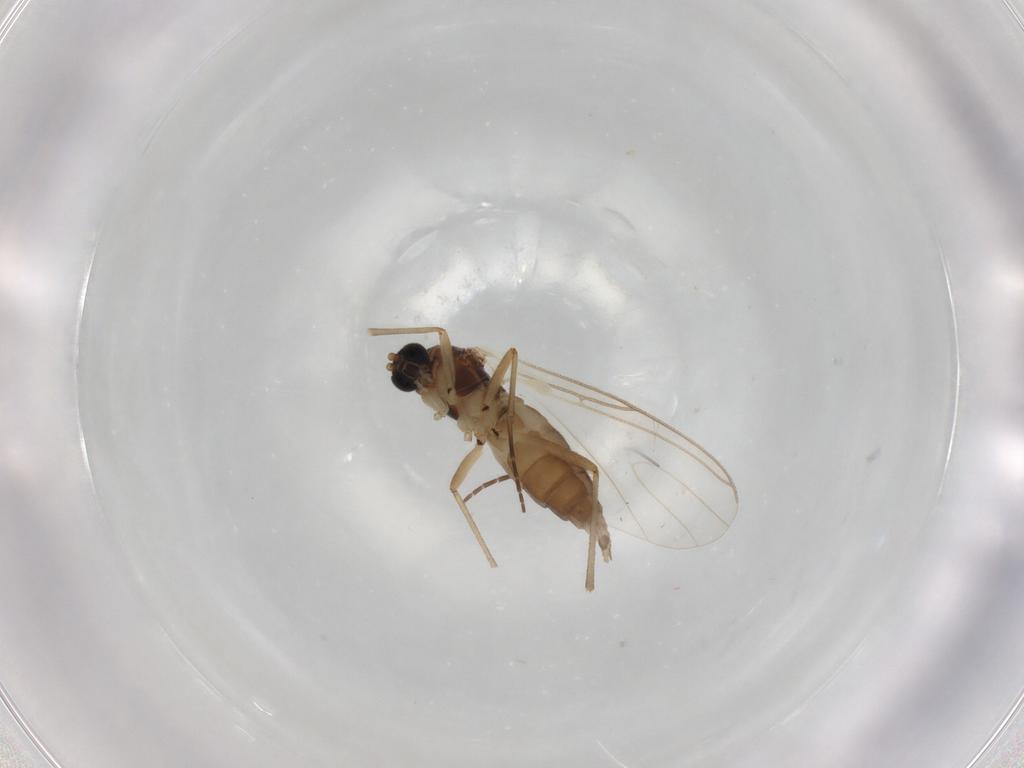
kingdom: Animalia
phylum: Arthropoda
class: Insecta
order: Diptera
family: Sciaridae
